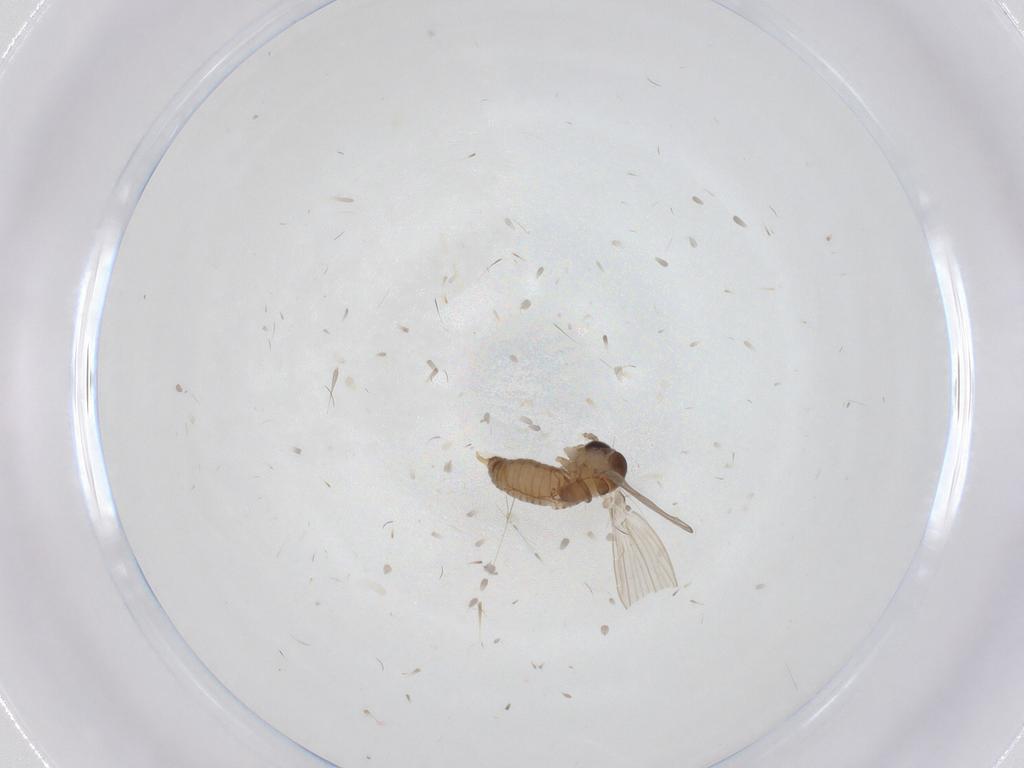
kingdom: Animalia
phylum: Arthropoda
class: Insecta
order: Diptera
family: Psychodidae
